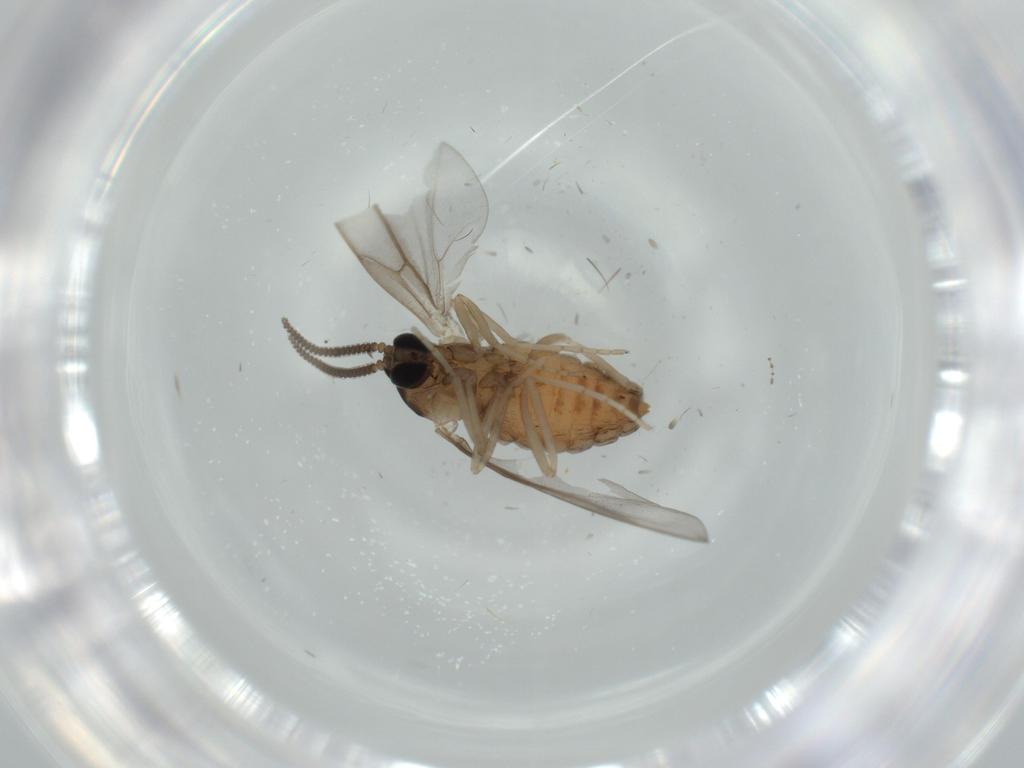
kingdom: Animalia
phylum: Arthropoda
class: Insecta
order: Diptera
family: Cecidomyiidae
